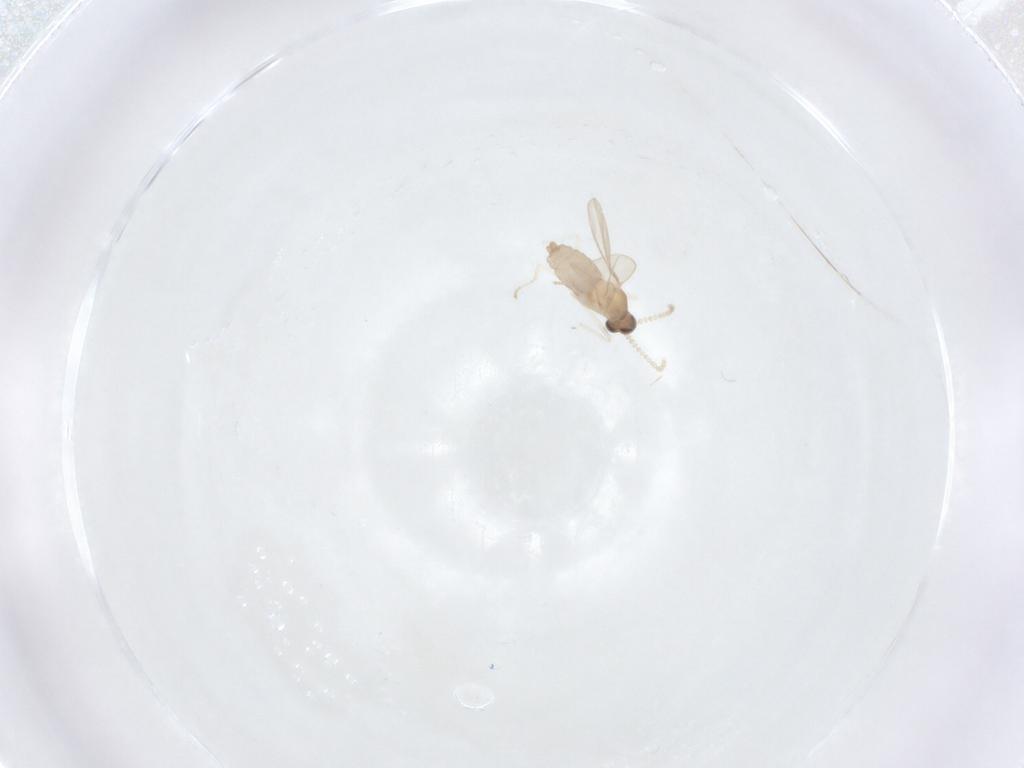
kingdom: Animalia
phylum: Arthropoda
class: Insecta
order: Diptera
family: Cecidomyiidae
